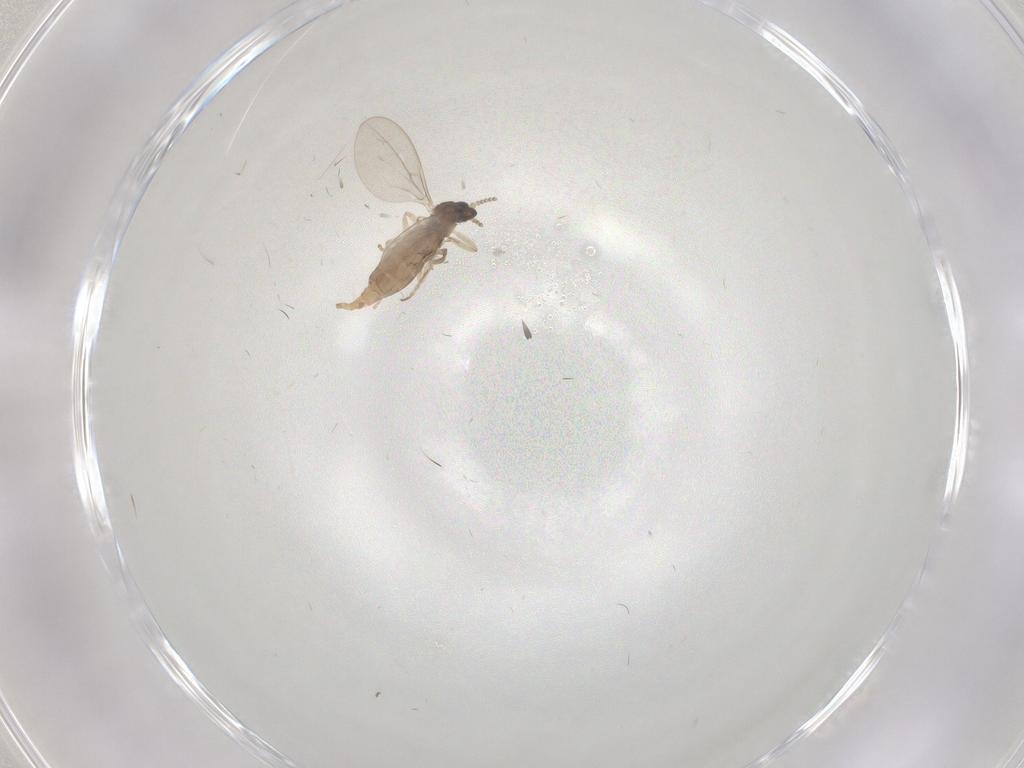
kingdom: Animalia
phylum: Arthropoda
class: Insecta
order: Diptera
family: Cecidomyiidae
